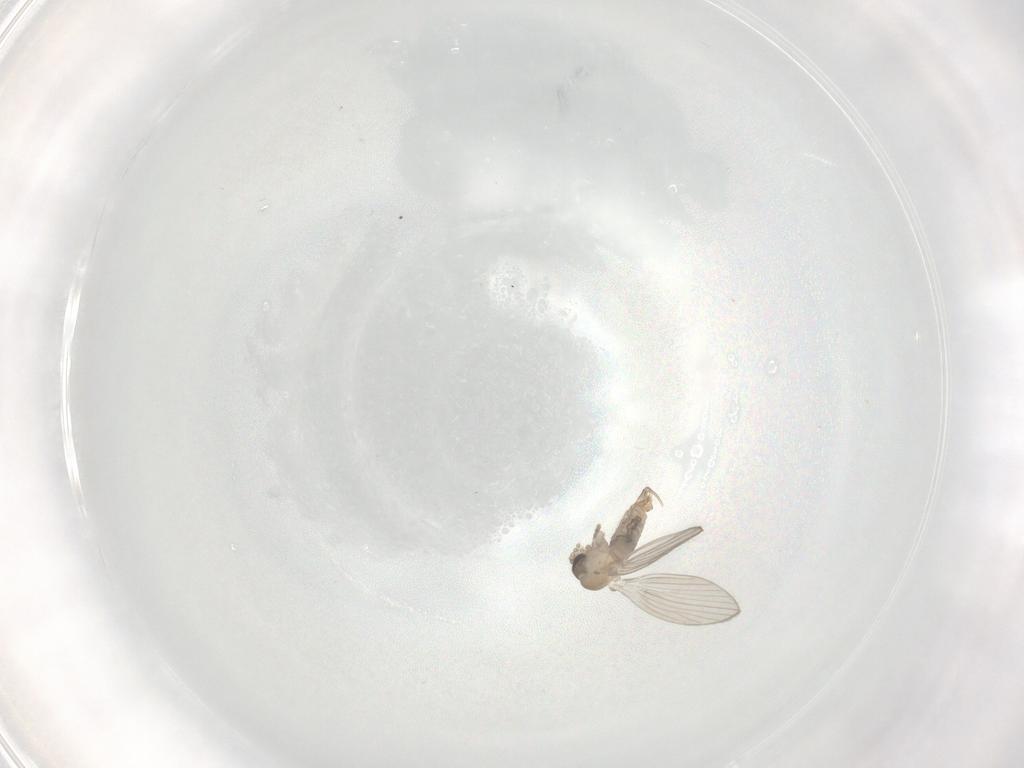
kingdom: Animalia
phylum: Arthropoda
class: Insecta
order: Diptera
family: Psychodidae
